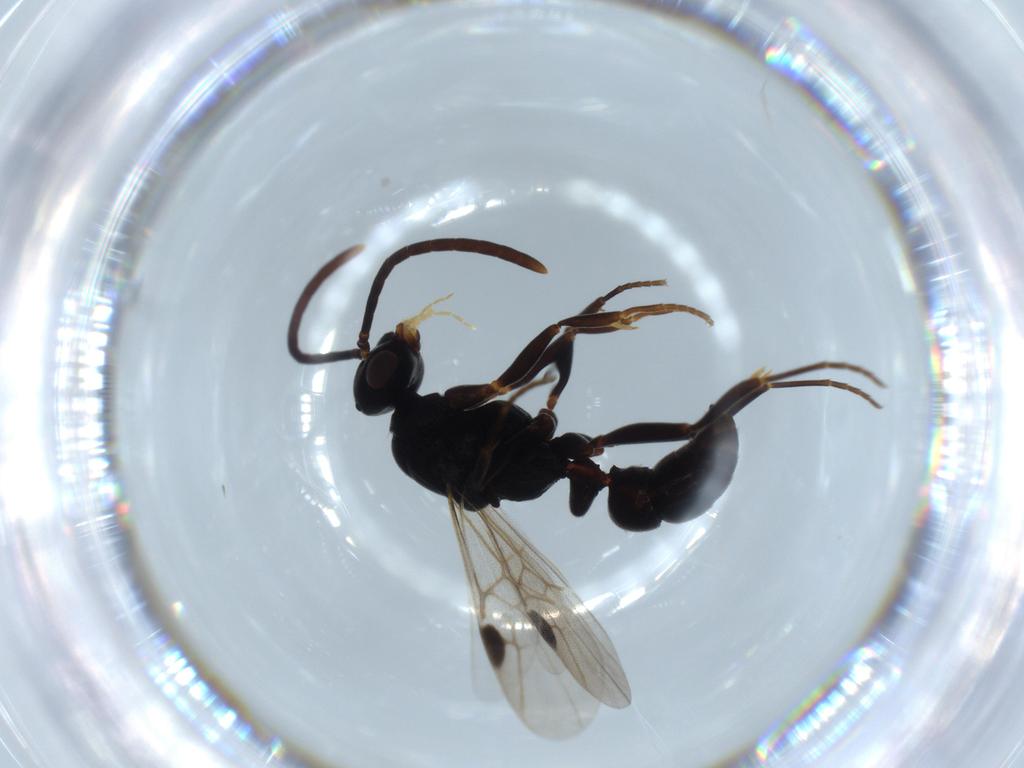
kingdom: Animalia
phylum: Arthropoda
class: Insecta
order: Hymenoptera
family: Formicidae
